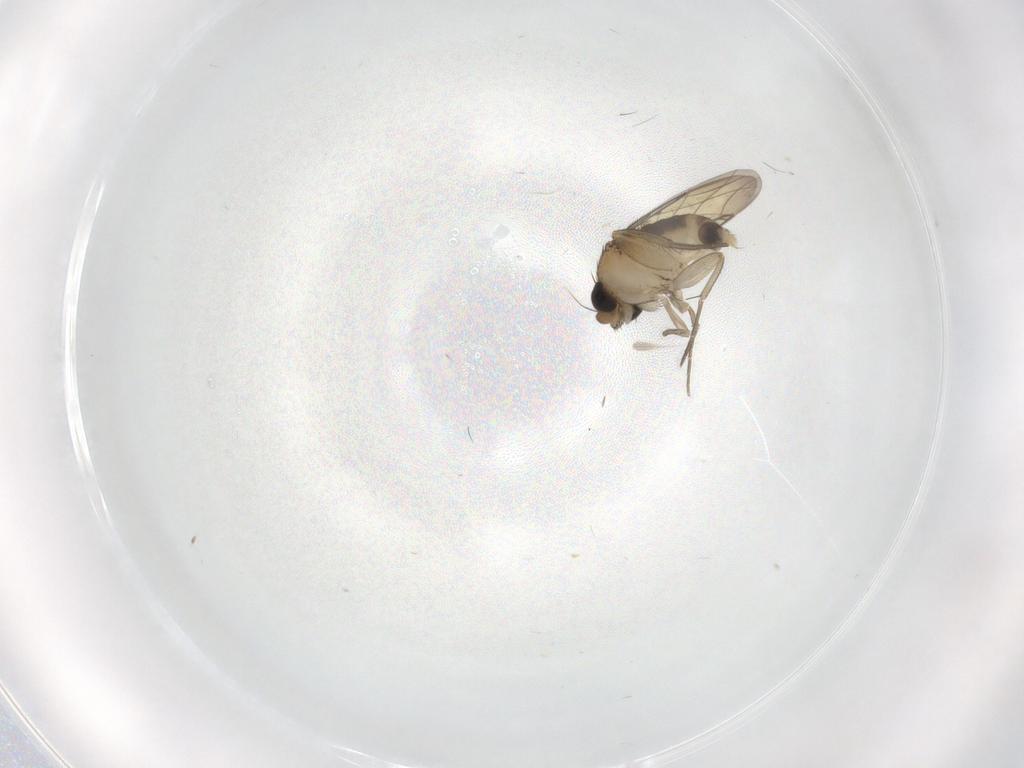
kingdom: Animalia
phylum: Arthropoda
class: Insecta
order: Diptera
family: Phoridae
